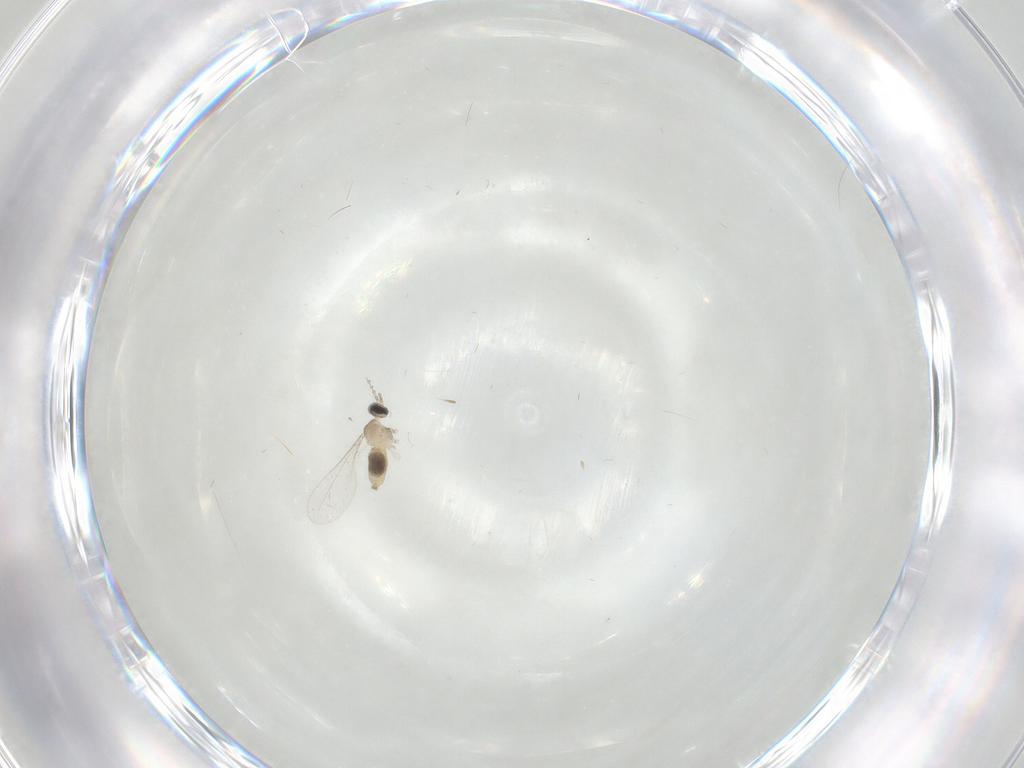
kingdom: Animalia
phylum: Arthropoda
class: Insecta
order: Diptera
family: Cecidomyiidae
